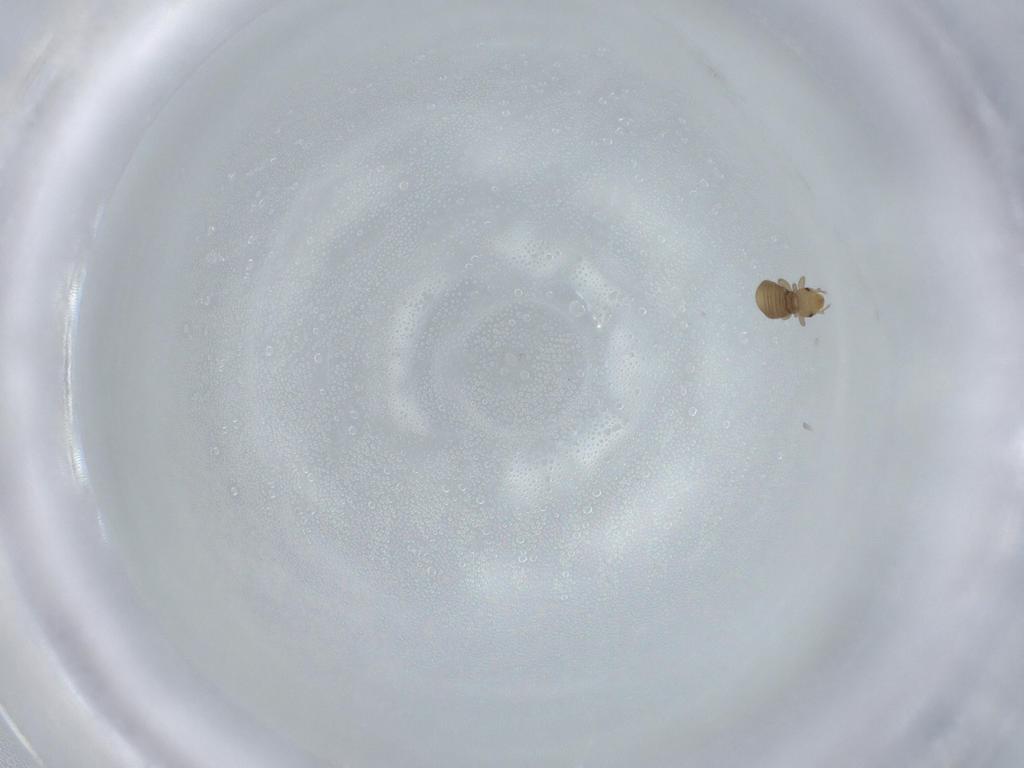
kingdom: Animalia
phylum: Arthropoda
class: Insecta
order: Psocodea
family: Liposcelididae
